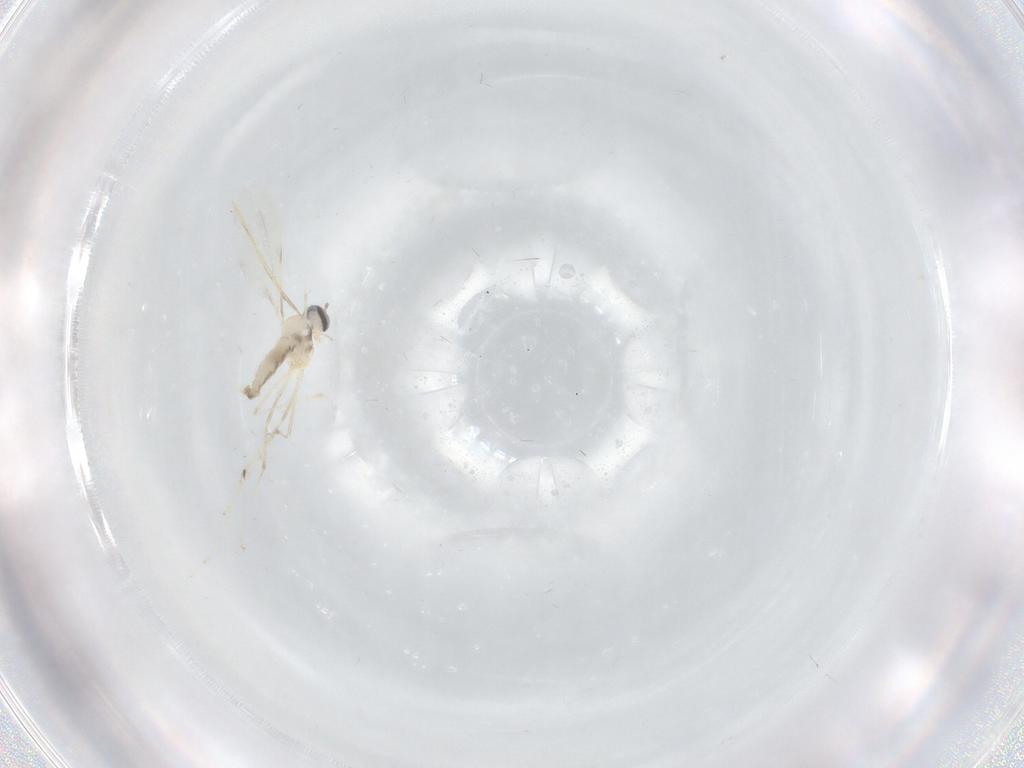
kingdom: Animalia
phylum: Arthropoda
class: Insecta
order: Diptera
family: Cecidomyiidae
